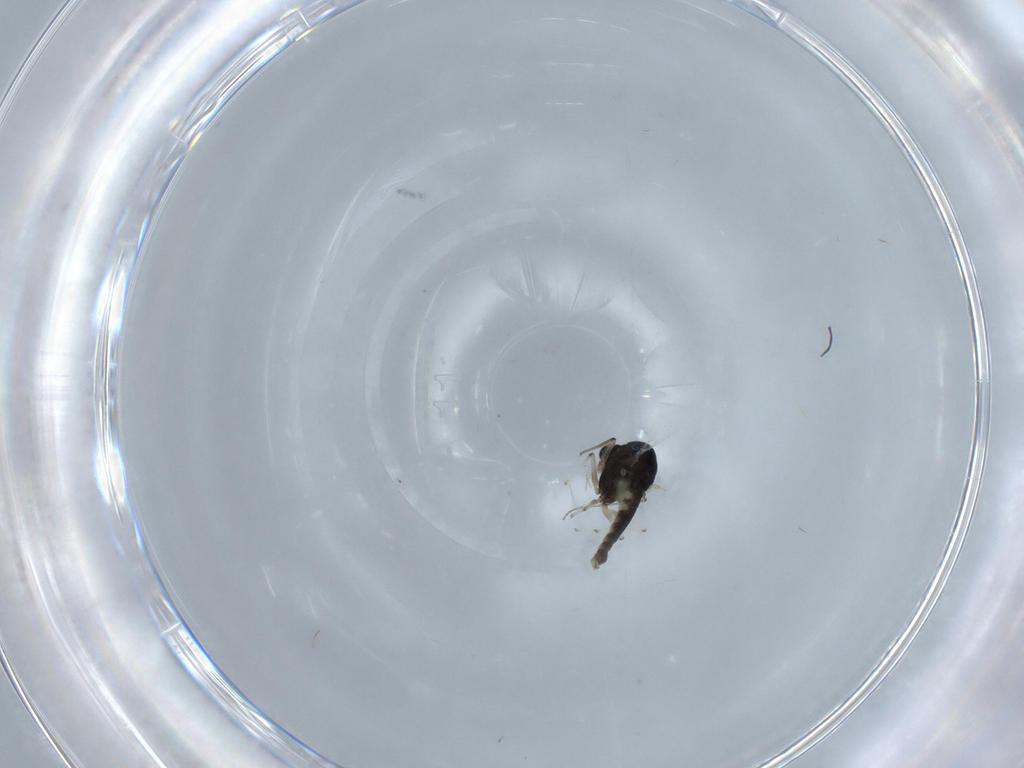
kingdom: Animalia
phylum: Arthropoda
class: Insecta
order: Diptera
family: Chironomidae
